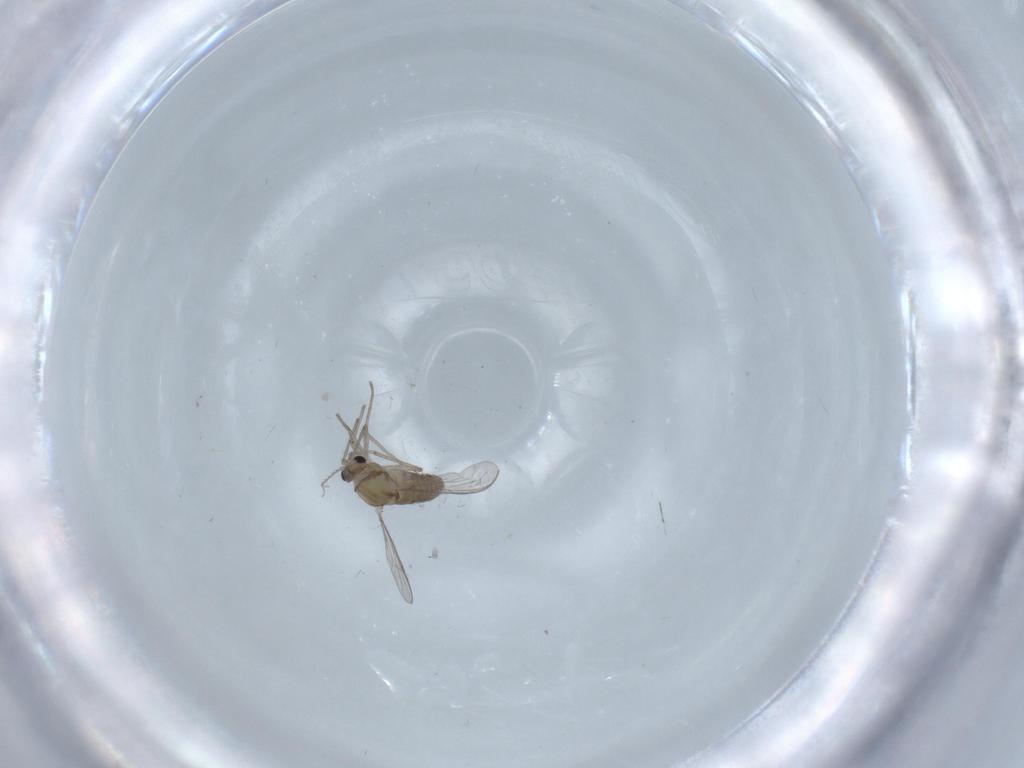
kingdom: Animalia
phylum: Arthropoda
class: Insecta
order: Diptera
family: Chironomidae
